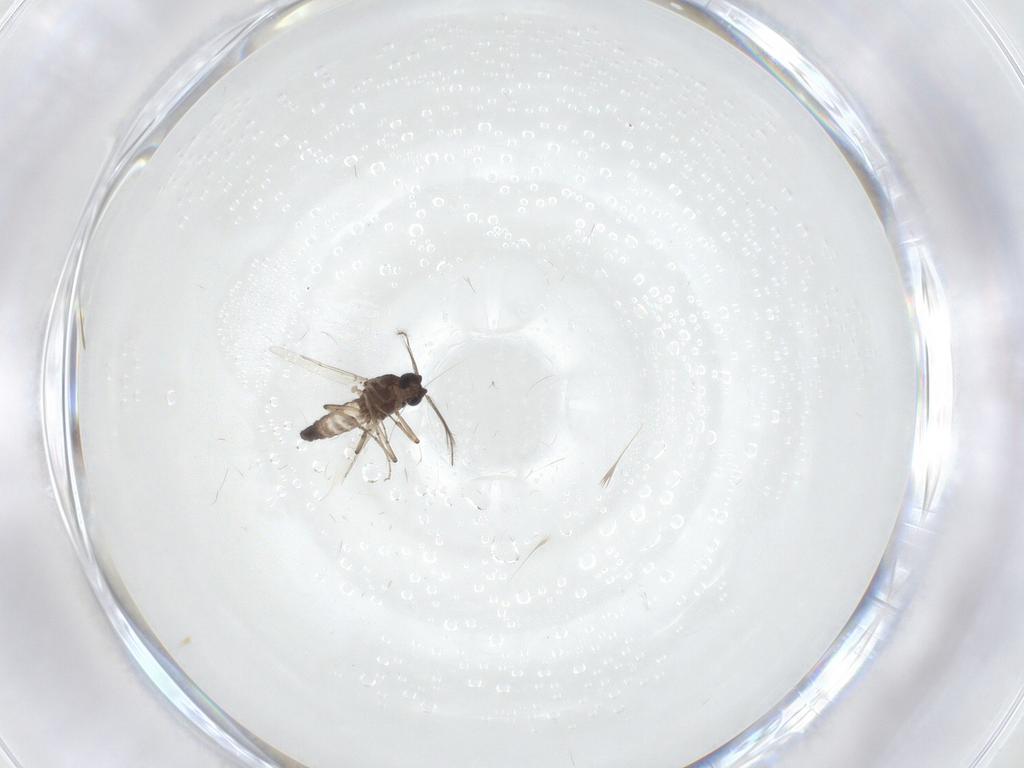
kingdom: Animalia
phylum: Arthropoda
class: Insecta
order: Diptera
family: Ceratopogonidae
